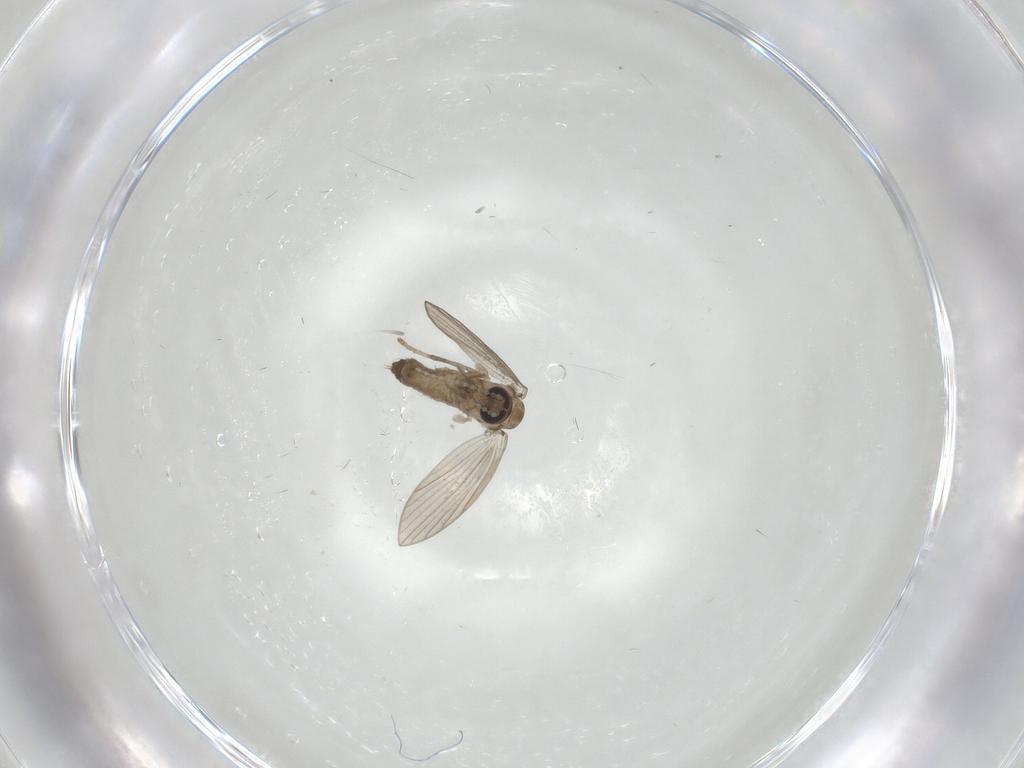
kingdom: Animalia
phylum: Arthropoda
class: Insecta
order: Diptera
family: Psychodidae
